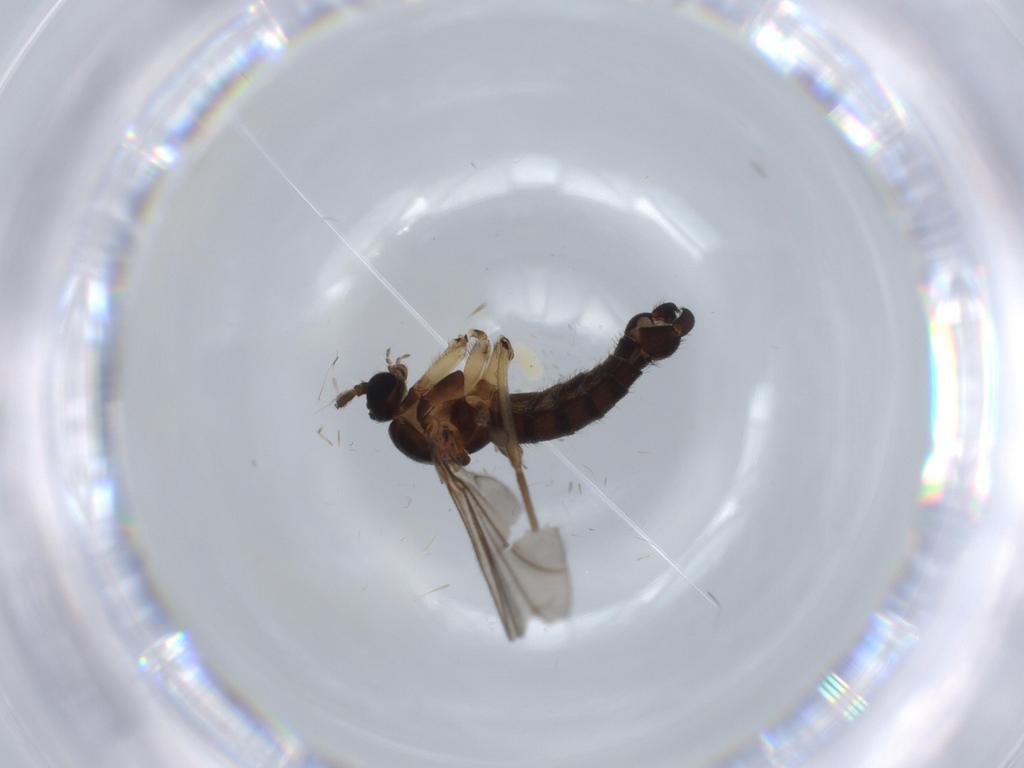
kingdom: Animalia
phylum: Arthropoda
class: Insecta
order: Diptera
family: Sciaridae
